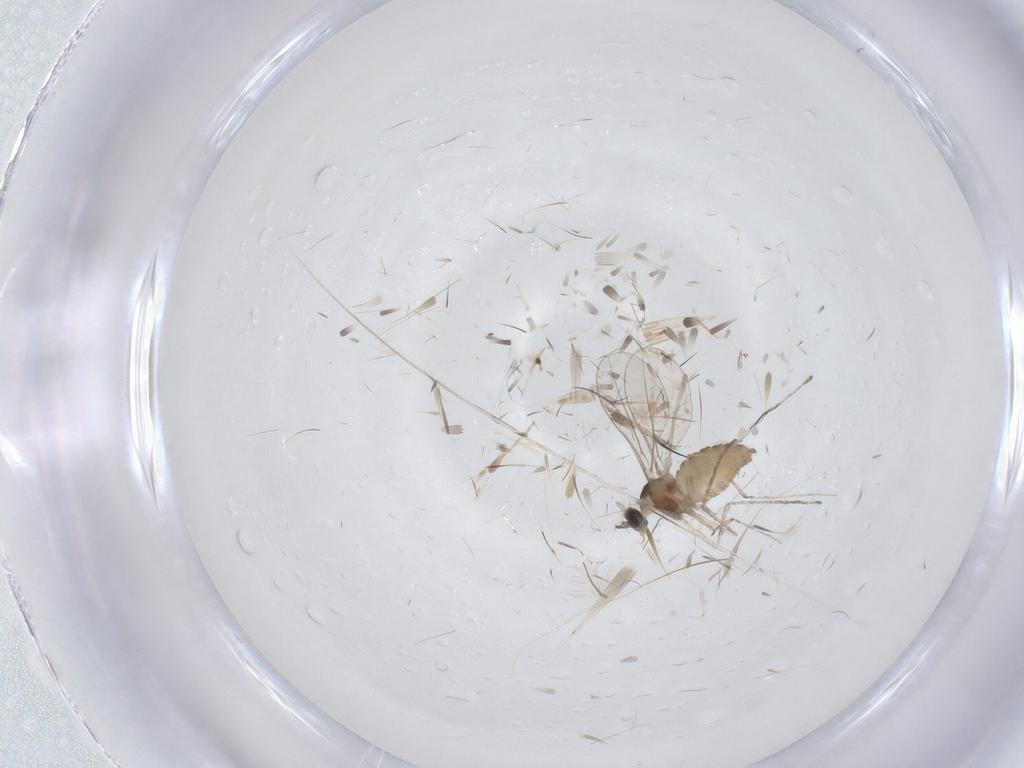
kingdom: Animalia
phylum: Arthropoda
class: Insecta
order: Diptera
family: Cecidomyiidae
